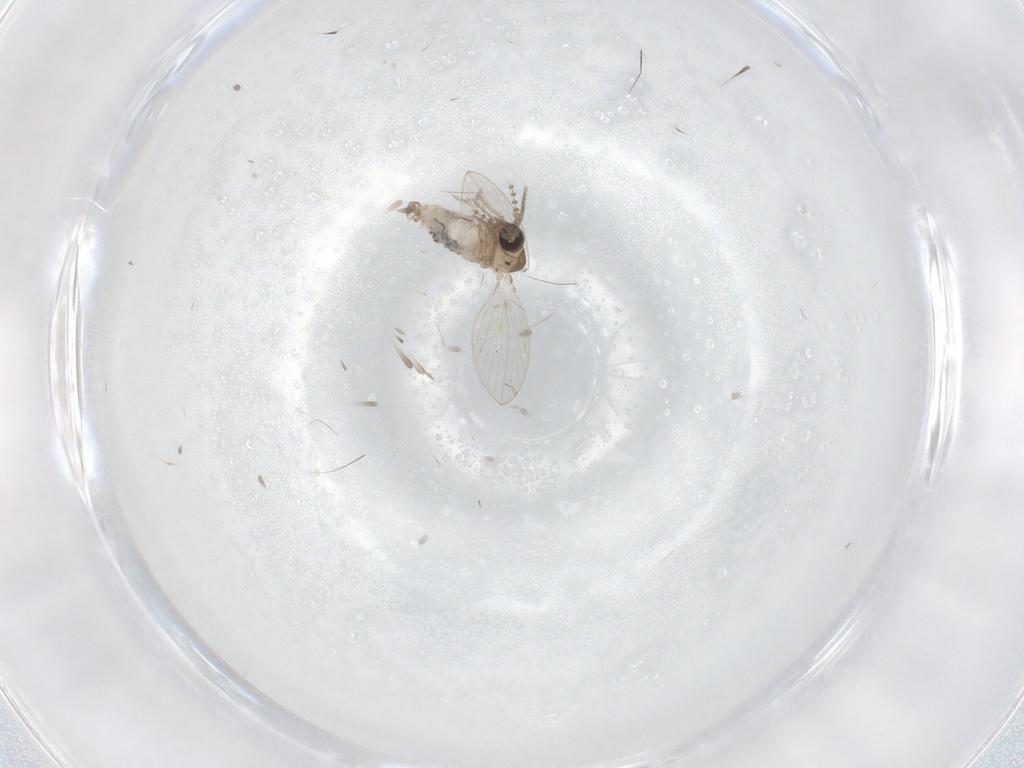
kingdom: Animalia
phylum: Arthropoda
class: Insecta
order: Diptera
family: Psychodidae
